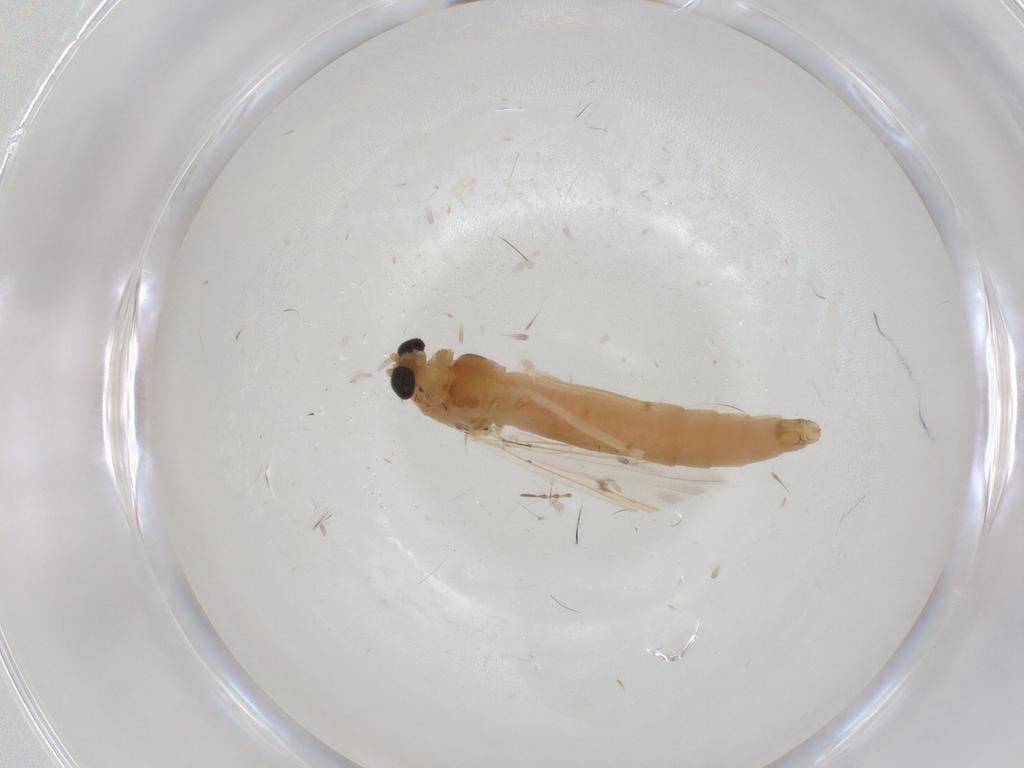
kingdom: Animalia
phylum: Arthropoda
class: Insecta
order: Diptera
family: Chironomidae
